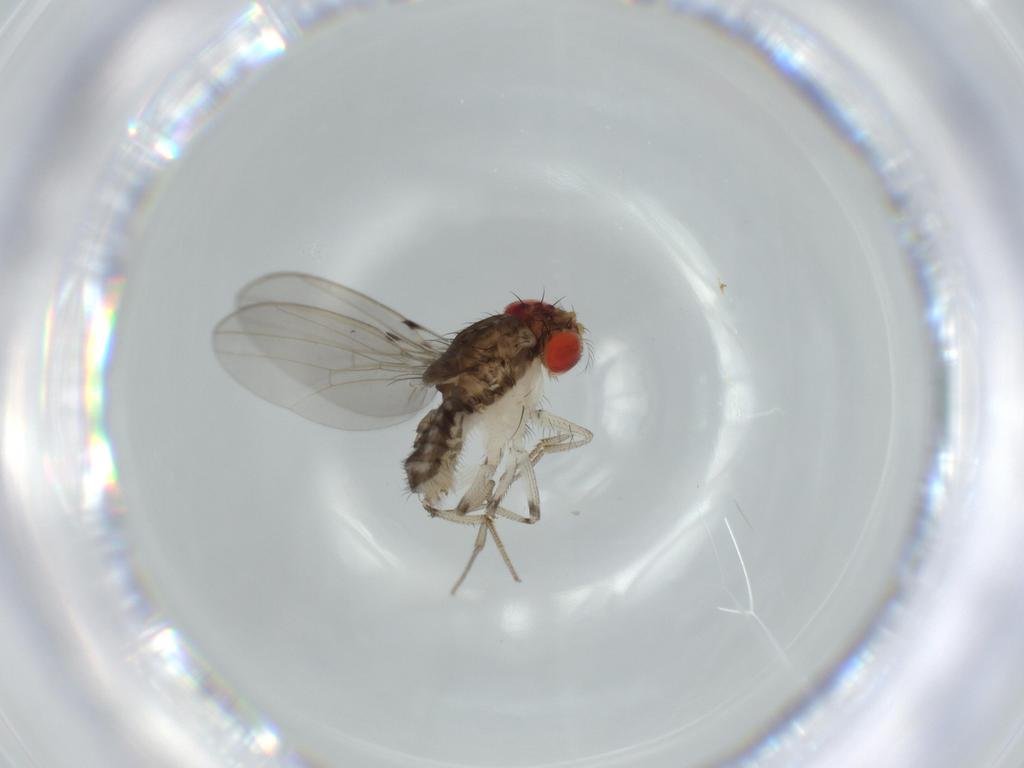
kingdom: Animalia
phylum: Arthropoda
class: Insecta
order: Diptera
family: Drosophilidae
